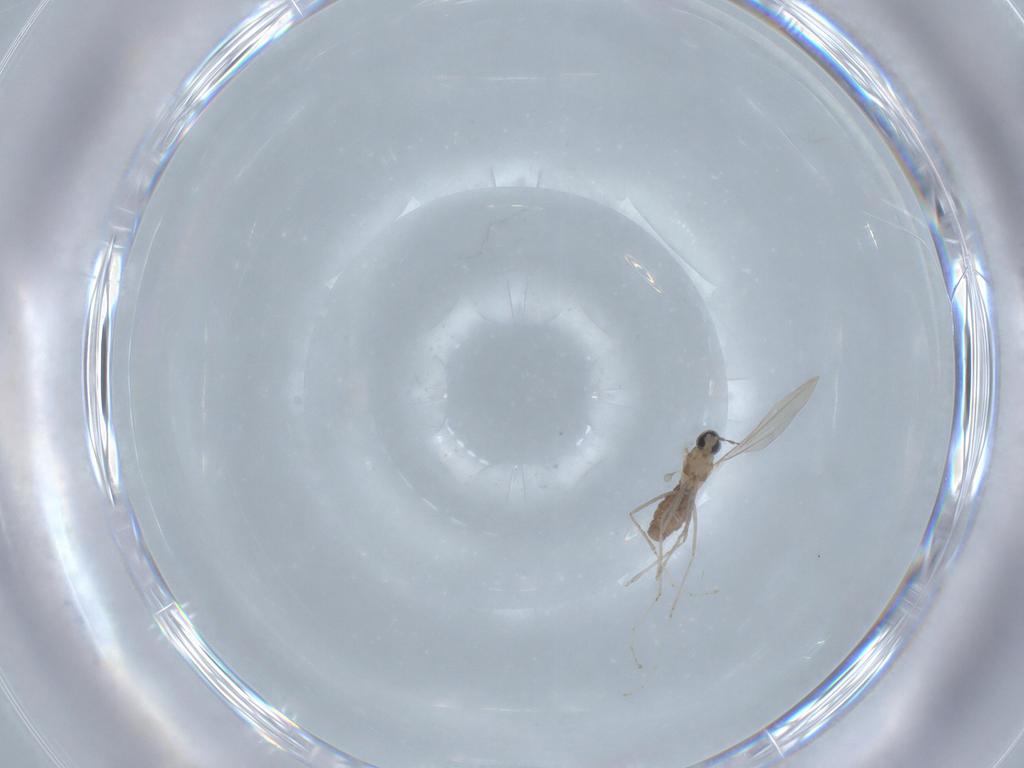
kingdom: Animalia
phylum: Arthropoda
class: Insecta
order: Diptera
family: Cecidomyiidae
